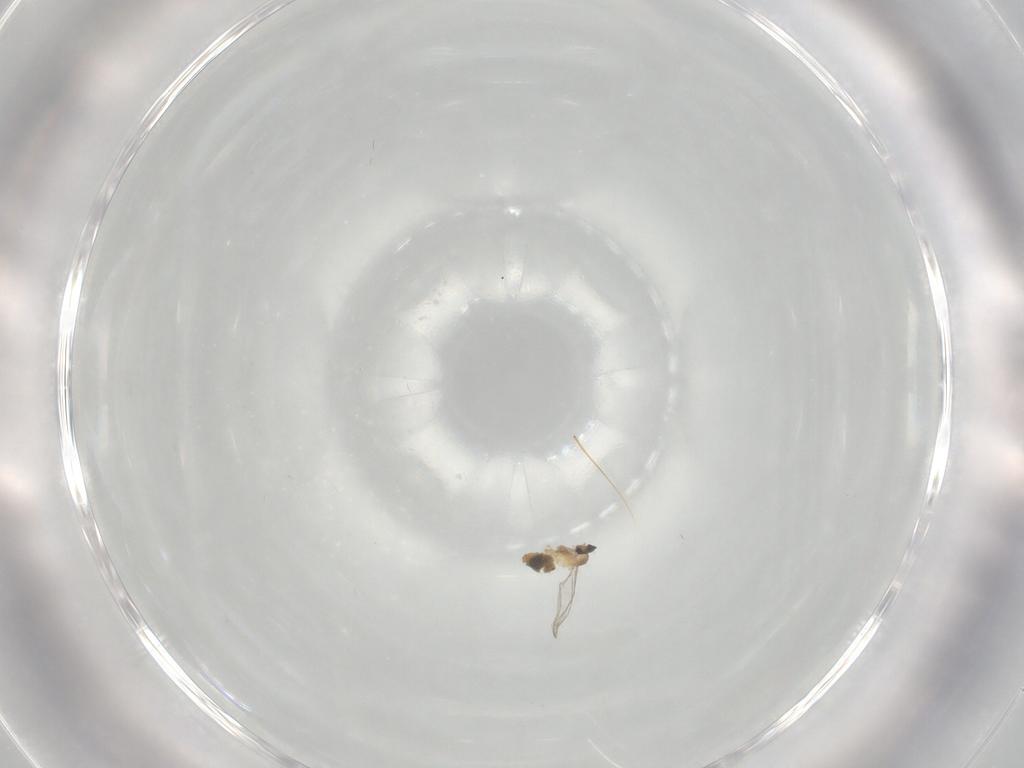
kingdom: Animalia
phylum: Arthropoda
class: Insecta
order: Diptera
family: Cecidomyiidae
